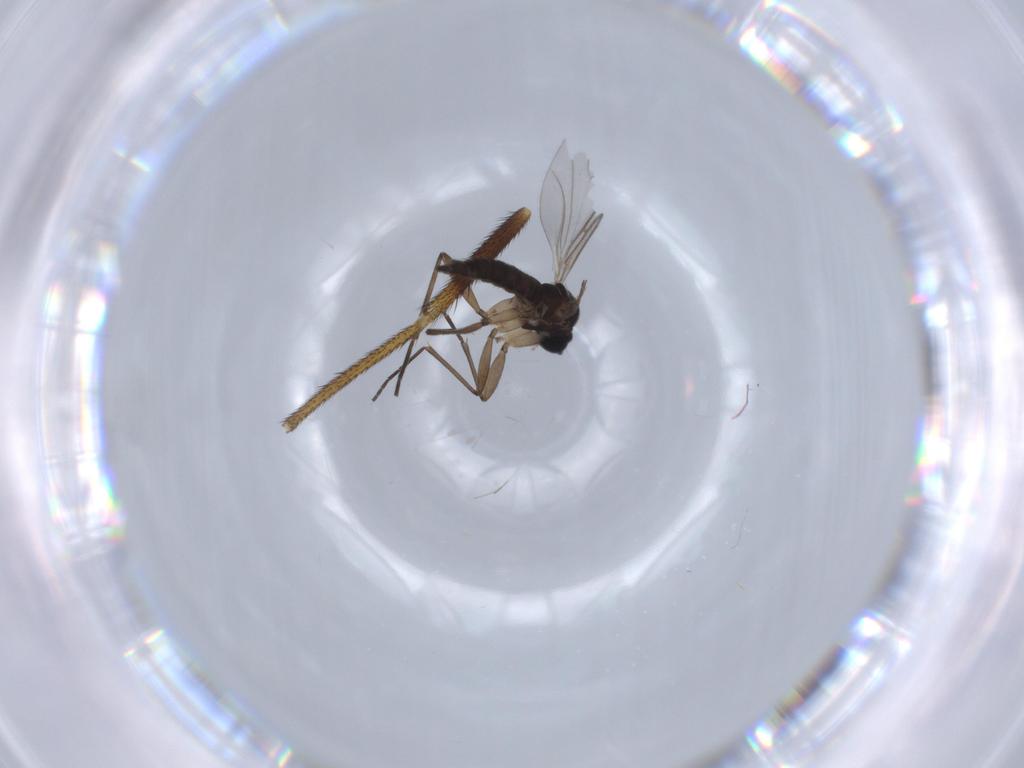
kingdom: Animalia
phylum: Arthropoda
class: Insecta
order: Diptera
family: Sciaridae
